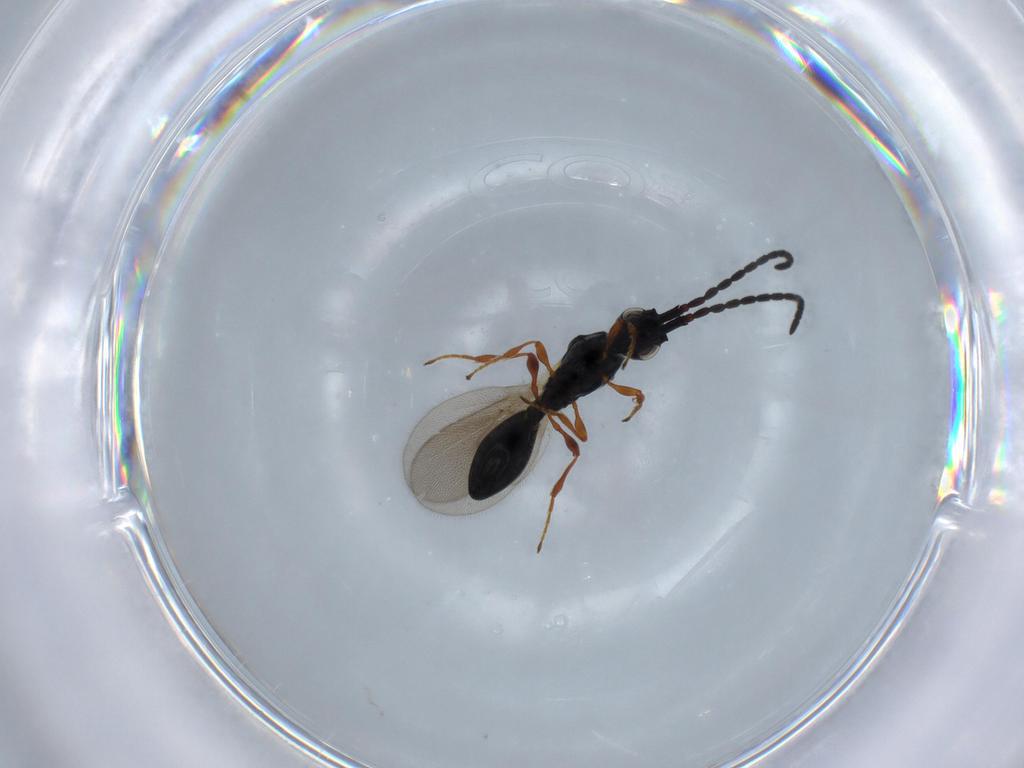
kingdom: Animalia
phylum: Arthropoda
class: Insecta
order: Hymenoptera
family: Diapriidae
